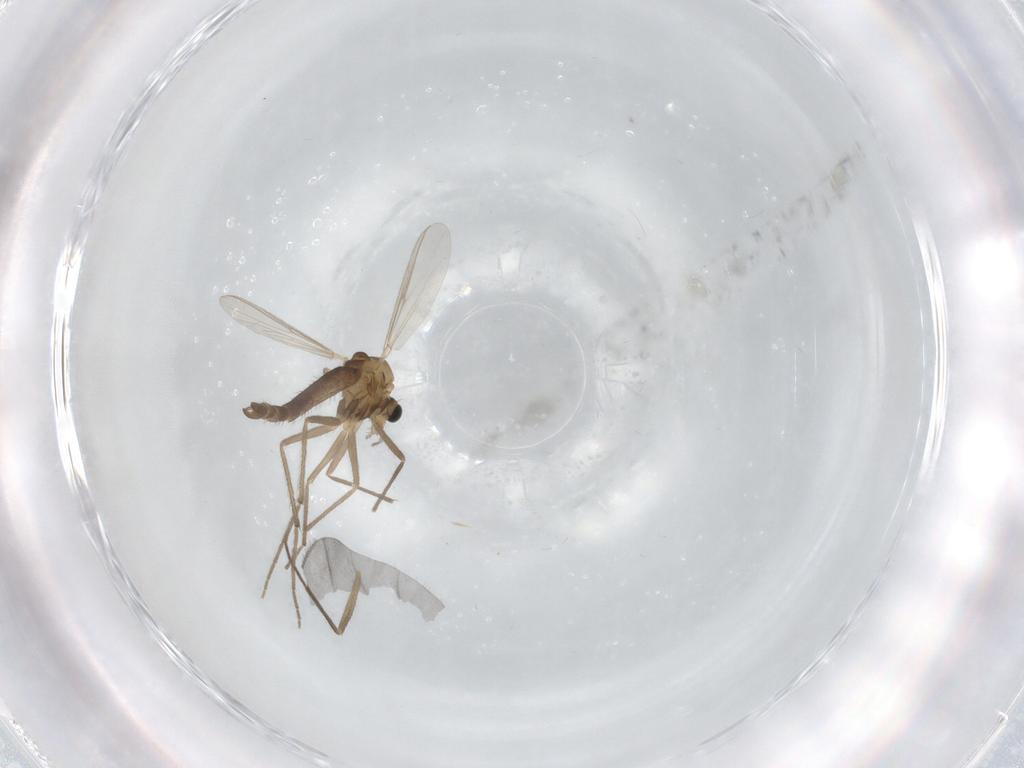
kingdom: Animalia
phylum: Arthropoda
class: Insecta
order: Diptera
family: Chironomidae
